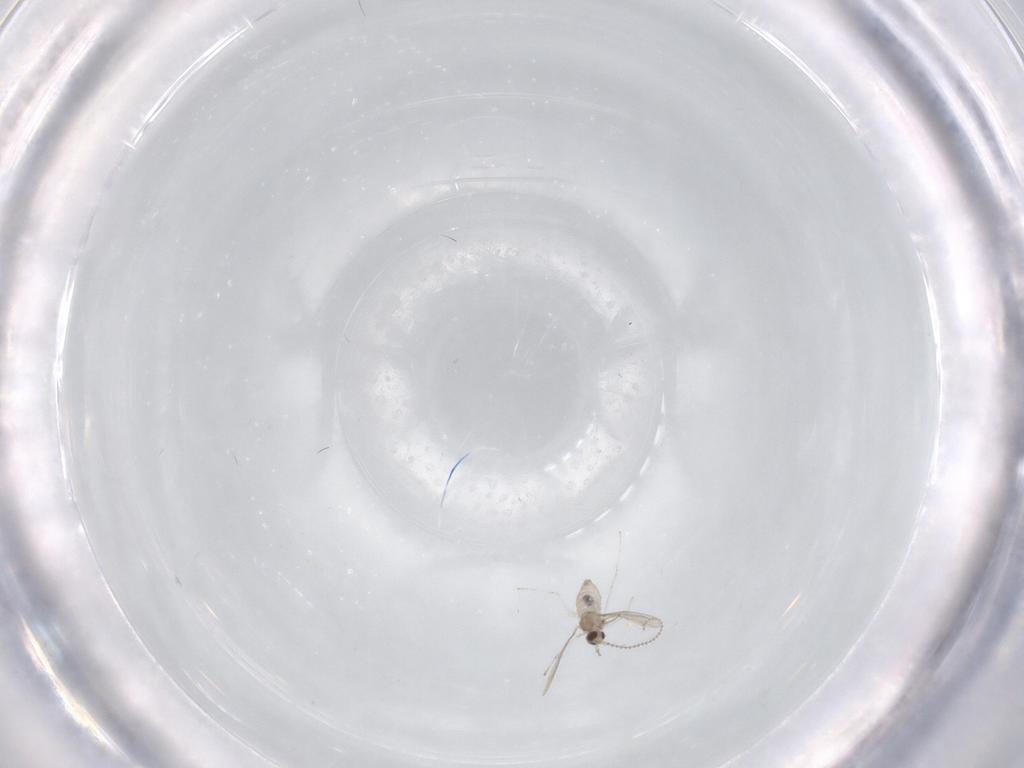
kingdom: Animalia
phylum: Arthropoda
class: Insecta
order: Diptera
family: Cecidomyiidae
